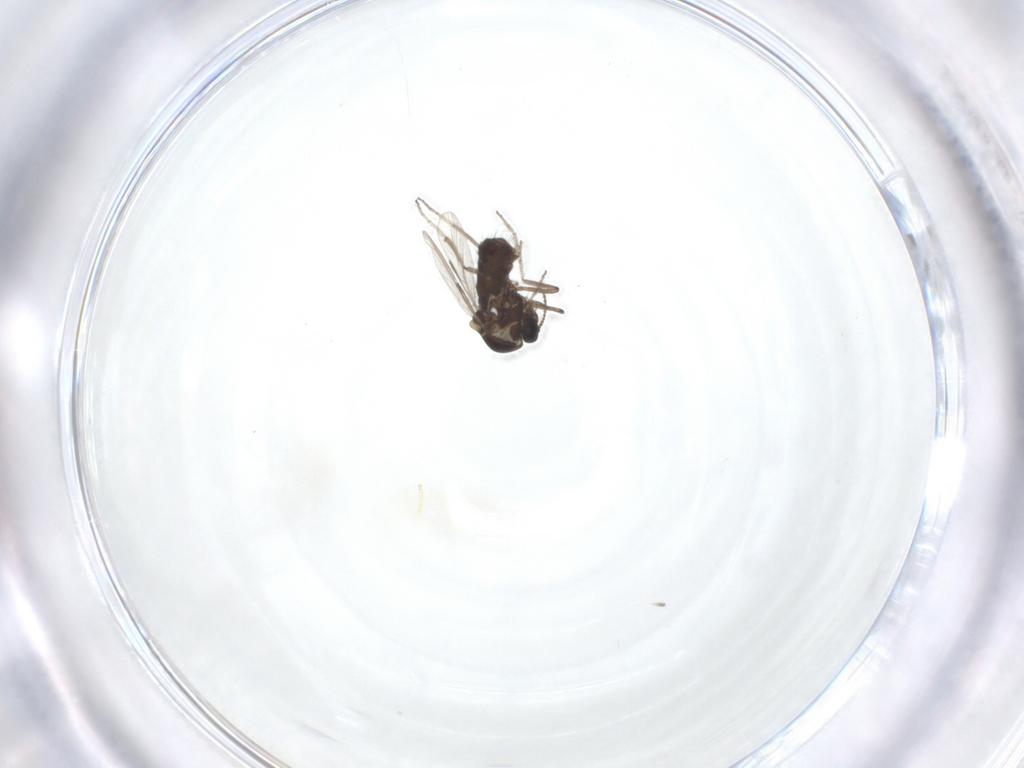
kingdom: Animalia
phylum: Arthropoda
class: Insecta
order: Diptera
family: Ceratopogonidae
